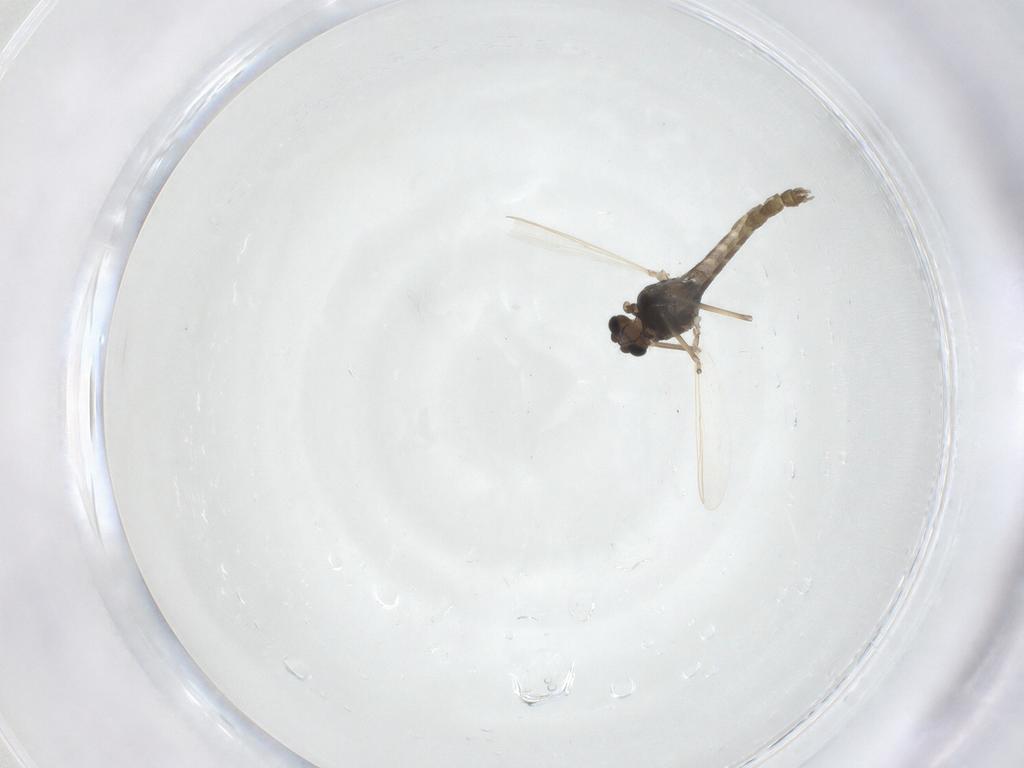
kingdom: Animalia
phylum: Arthropoda
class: Insecta
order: Diptera
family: Chironomidae
